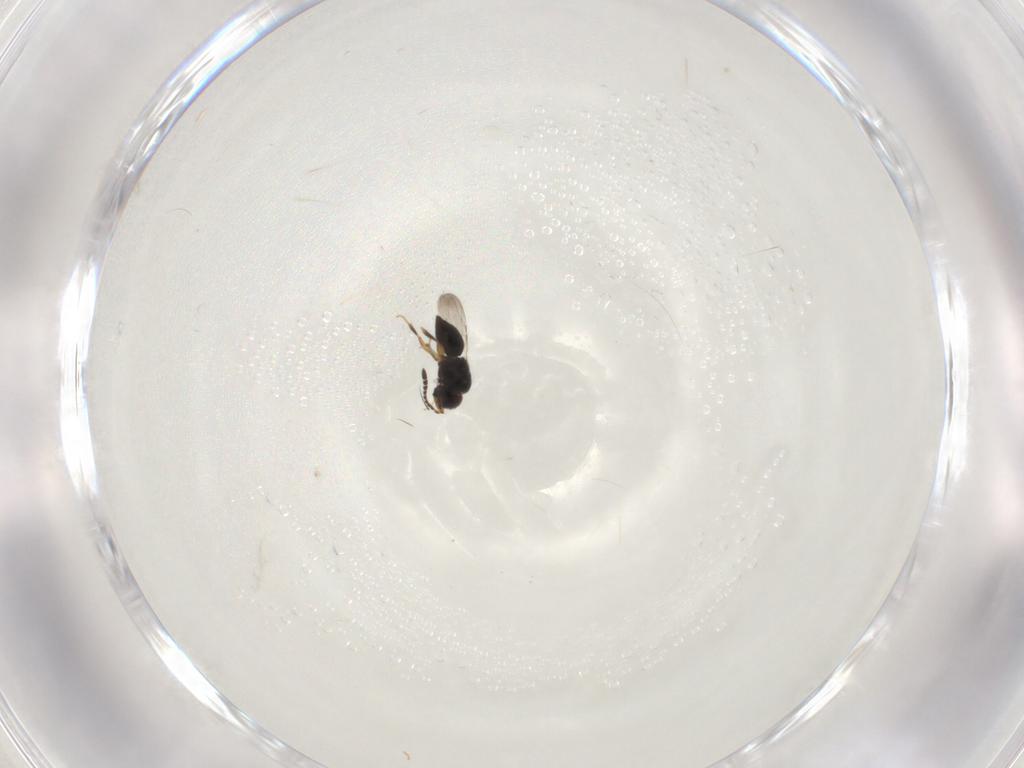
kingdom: Animalia
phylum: Arthropoda
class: Insecta
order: Hymenoptera
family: Ceraphronidae
